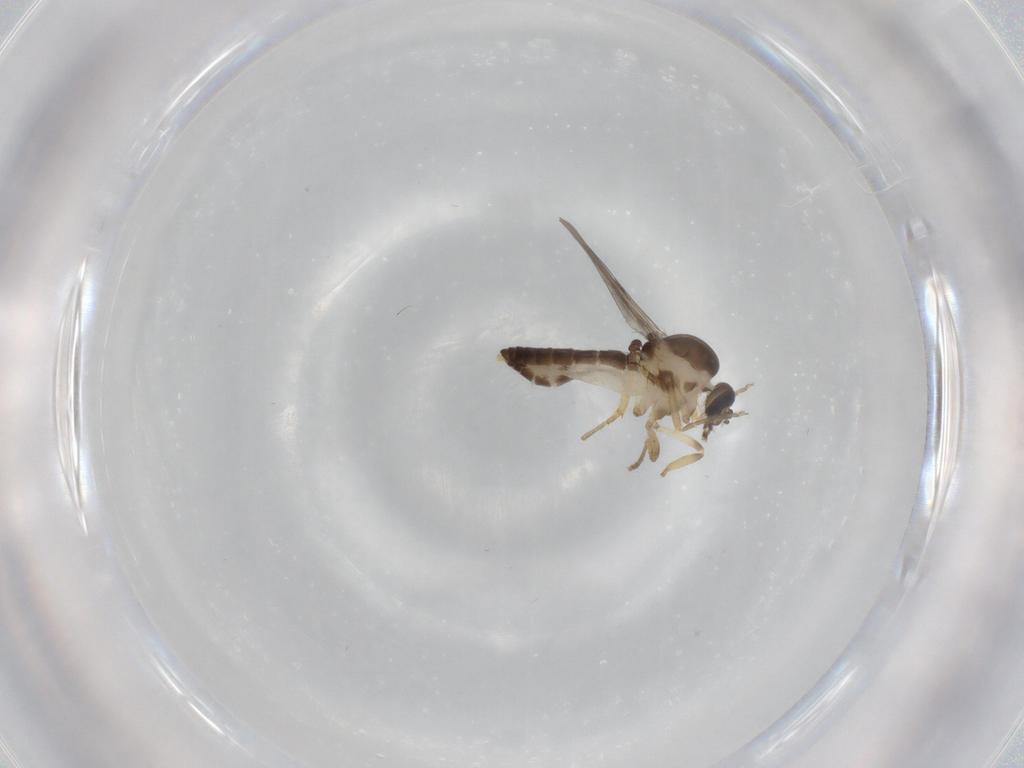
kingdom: Animalia
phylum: Arthropoda
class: Insecta
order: Diptera
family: Ceratopogonidae
